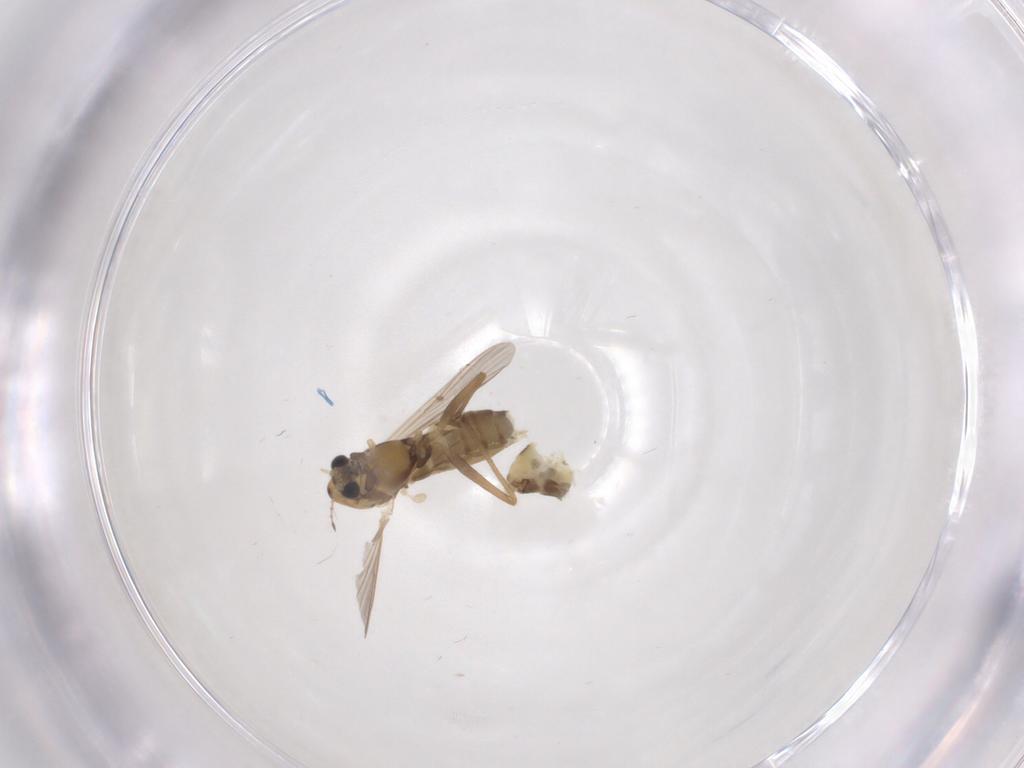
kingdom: Animalia
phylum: Arthropoda
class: Insecta
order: Diptera
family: Chironomidae
